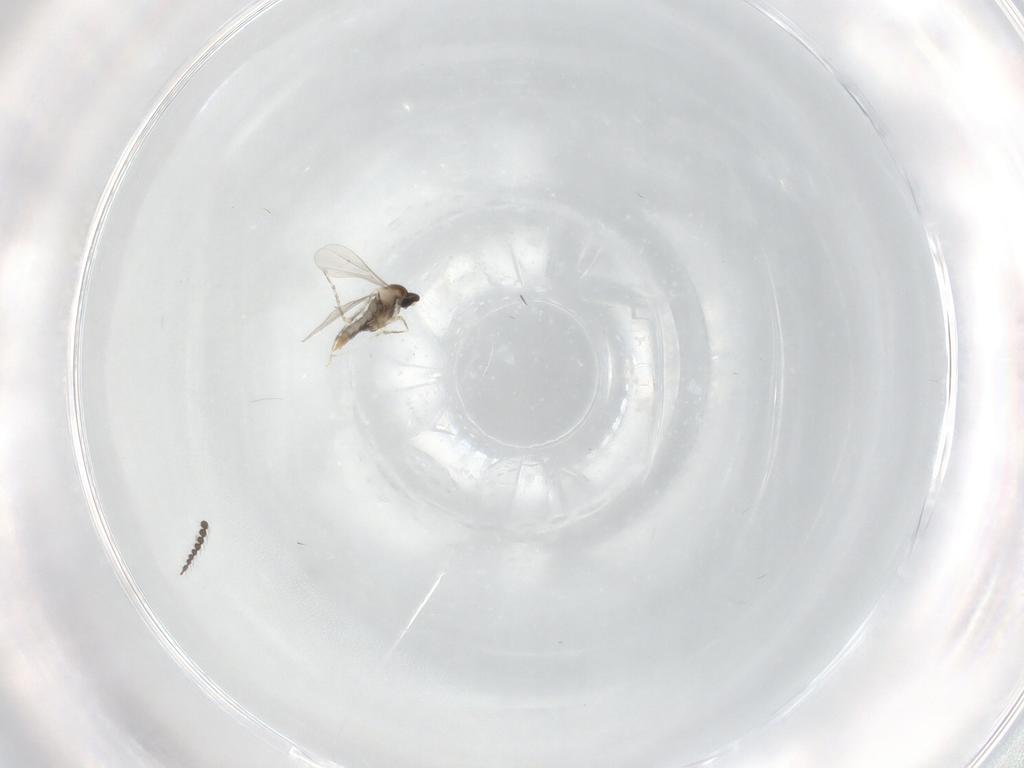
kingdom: Animalia
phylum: Arthropoda
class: Insecta
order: Diptera
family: Limoniidae
